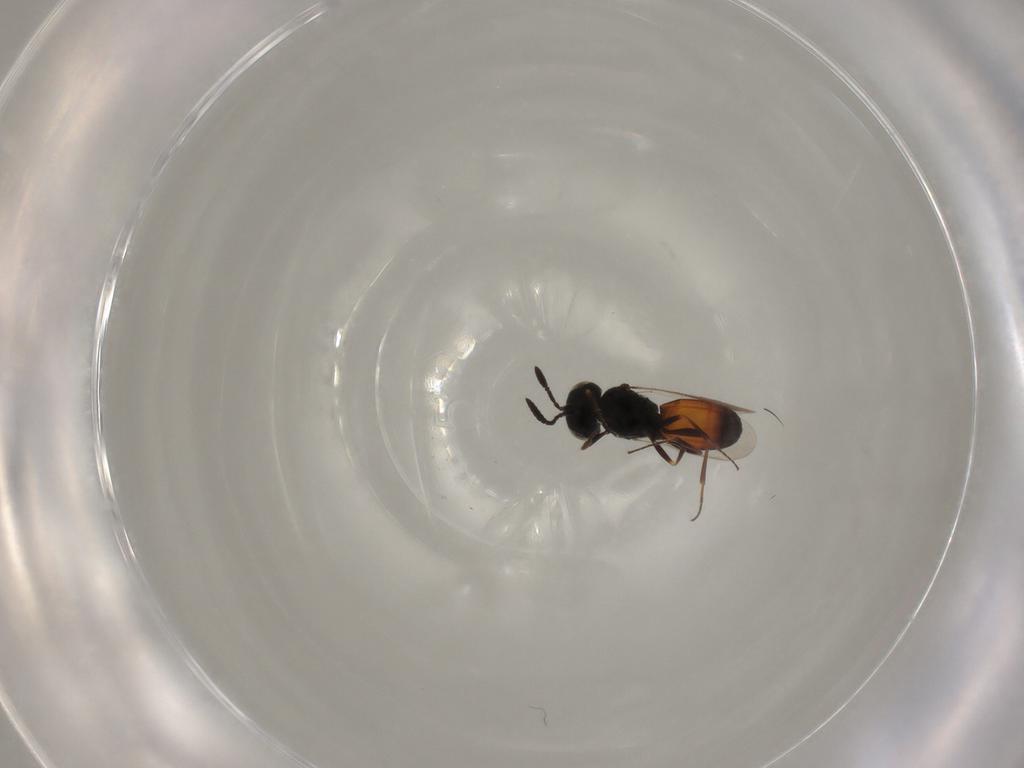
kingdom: Animalia
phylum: Arthropoda
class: Insecta
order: Hymenoptera
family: Scelionidae
